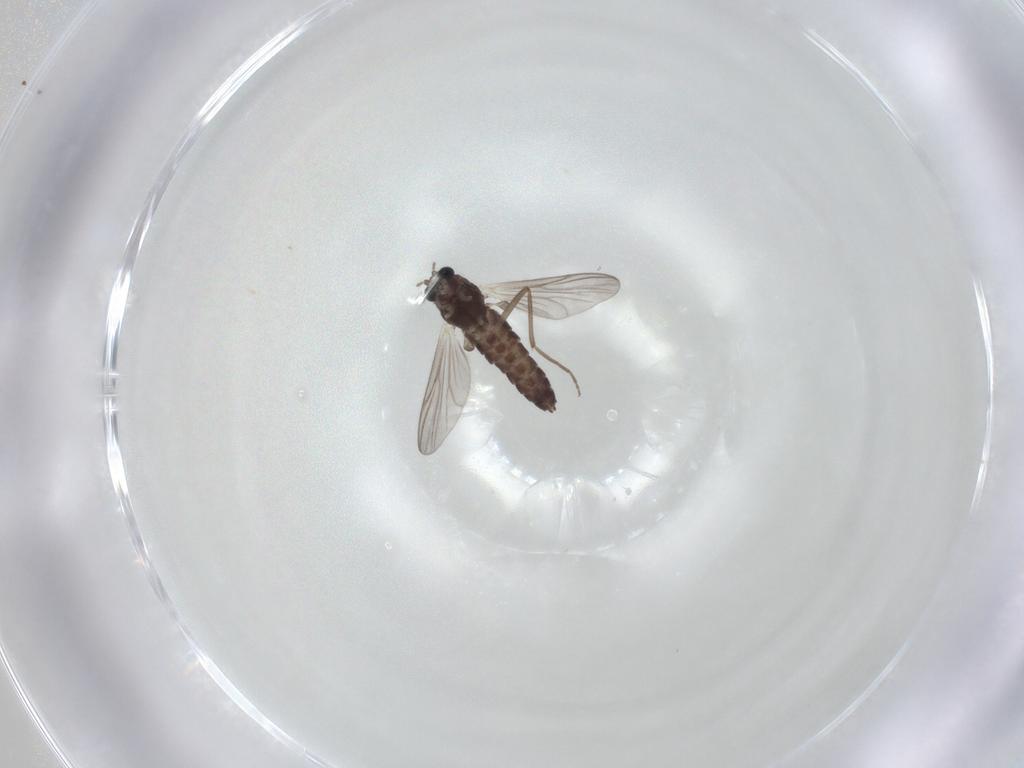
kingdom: Animalia
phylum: Arthropoda
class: Insecta
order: Diptera
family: Chironomidae
